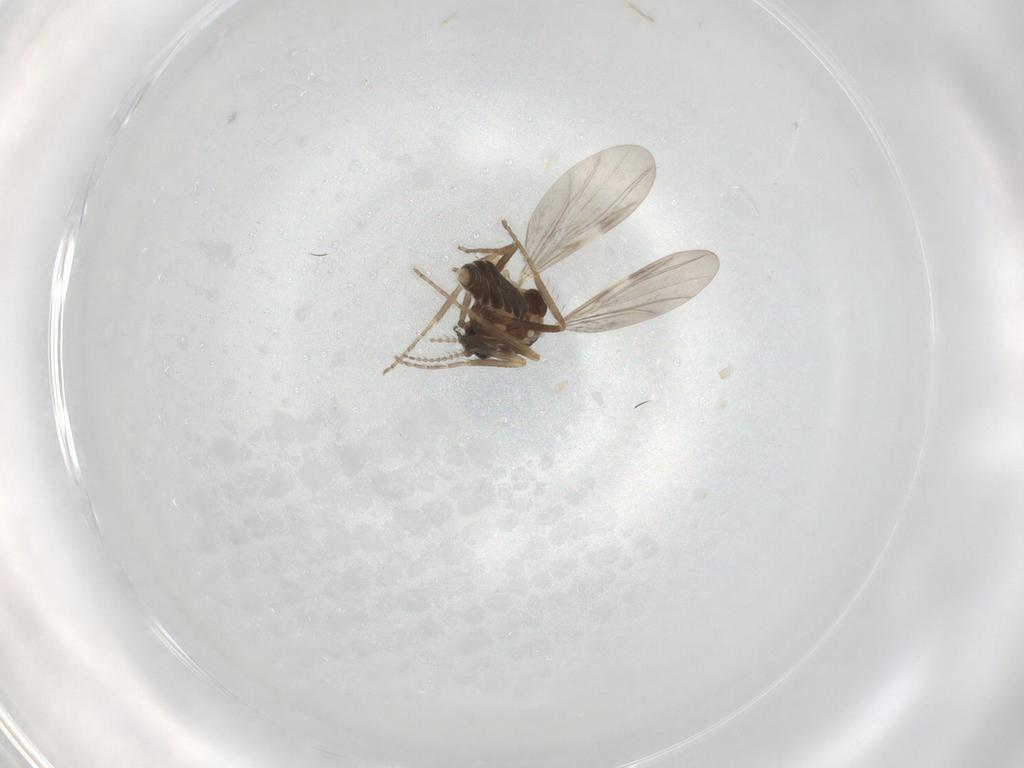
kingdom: Animalia
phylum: Arthropoda
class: Insecta
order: Diptera
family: Ceratopogonidae
